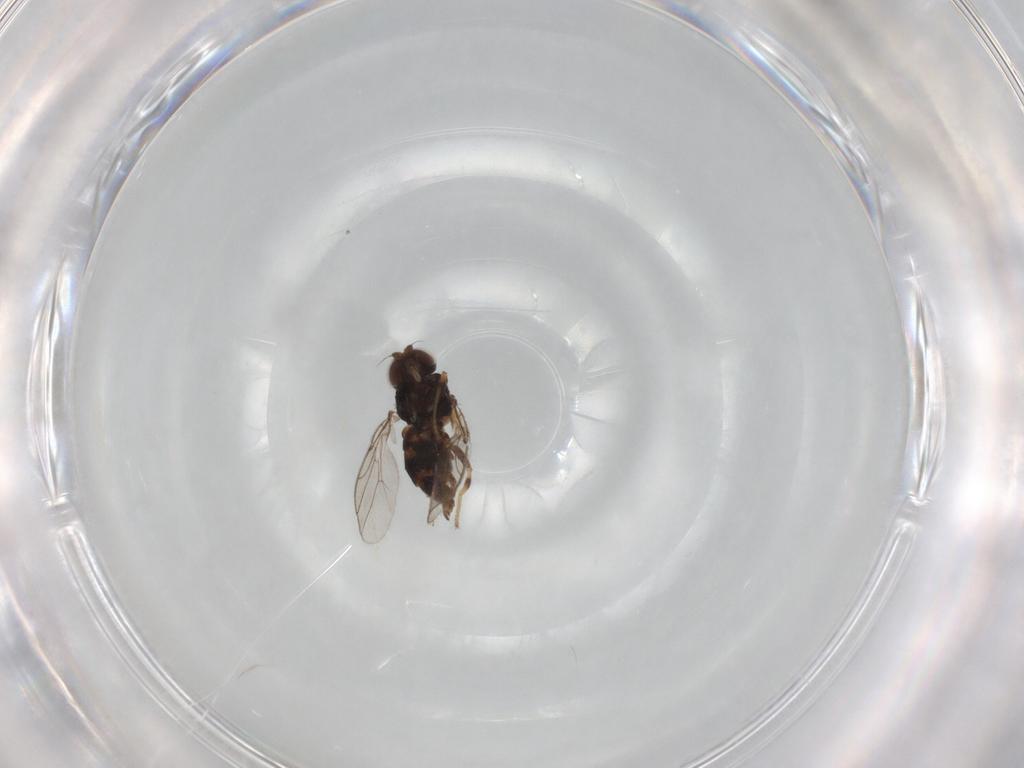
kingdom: Animalia
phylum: Arthropoda
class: Insecta
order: Diptera
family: Chloropidae
